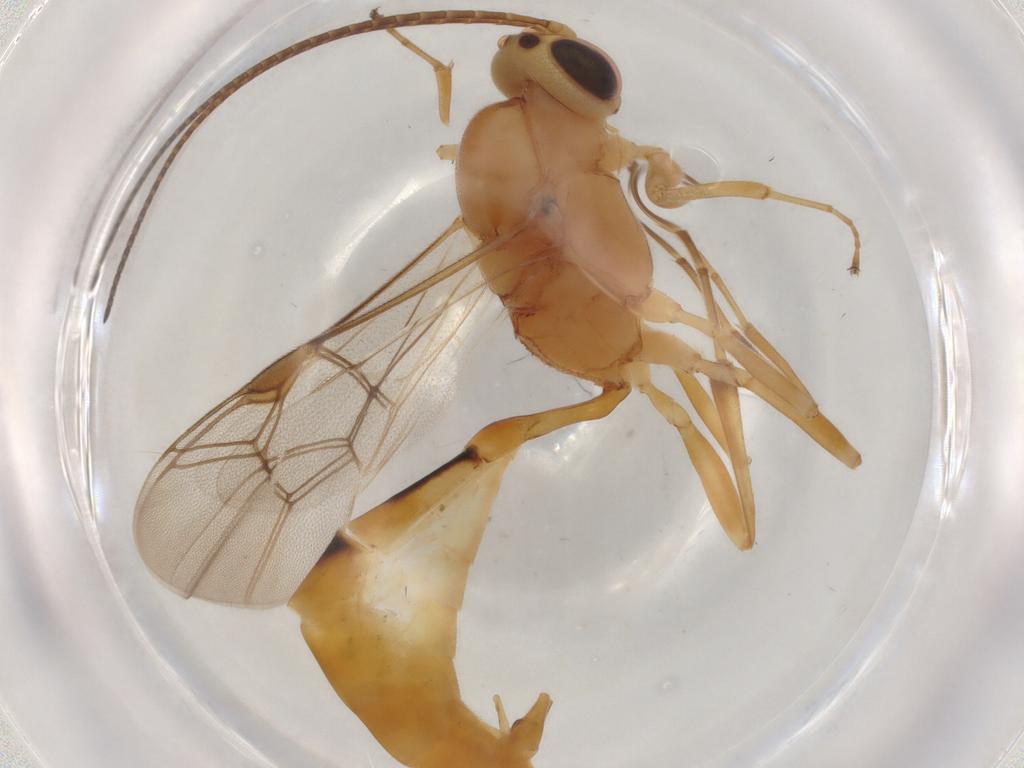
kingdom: Animalia
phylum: Arthropoda
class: Insecta
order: Hymenoptera
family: Ichneumonidae
